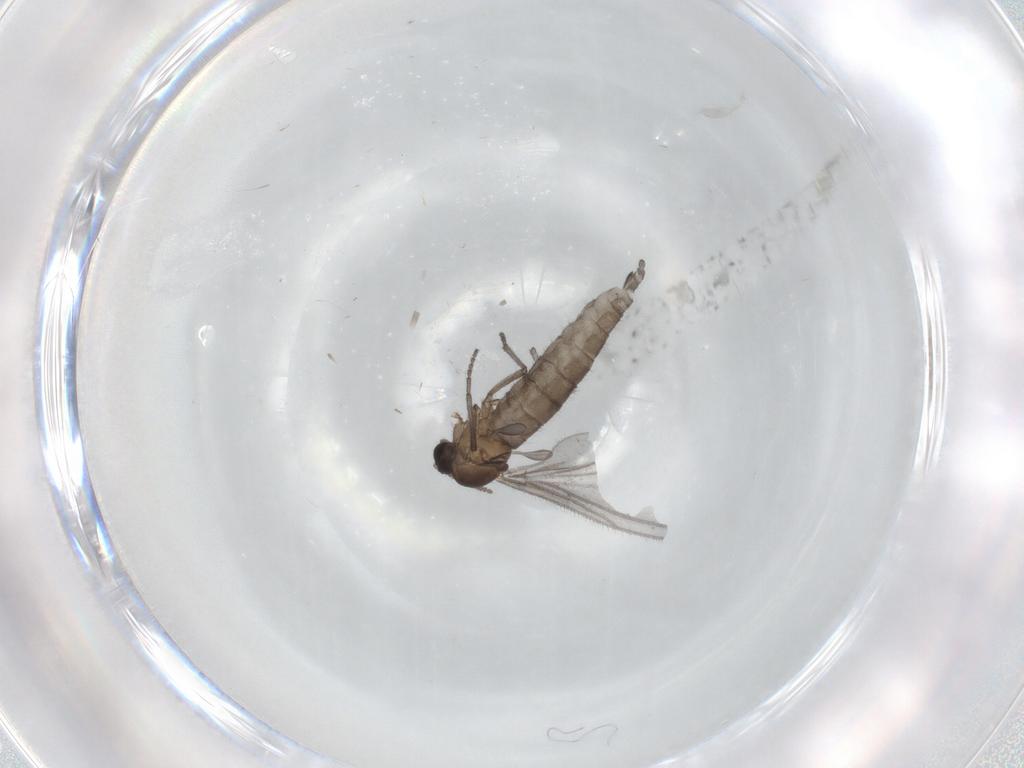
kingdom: Animalia
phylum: Arthropoda
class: Insecta
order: Diptera
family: Sciaridae
